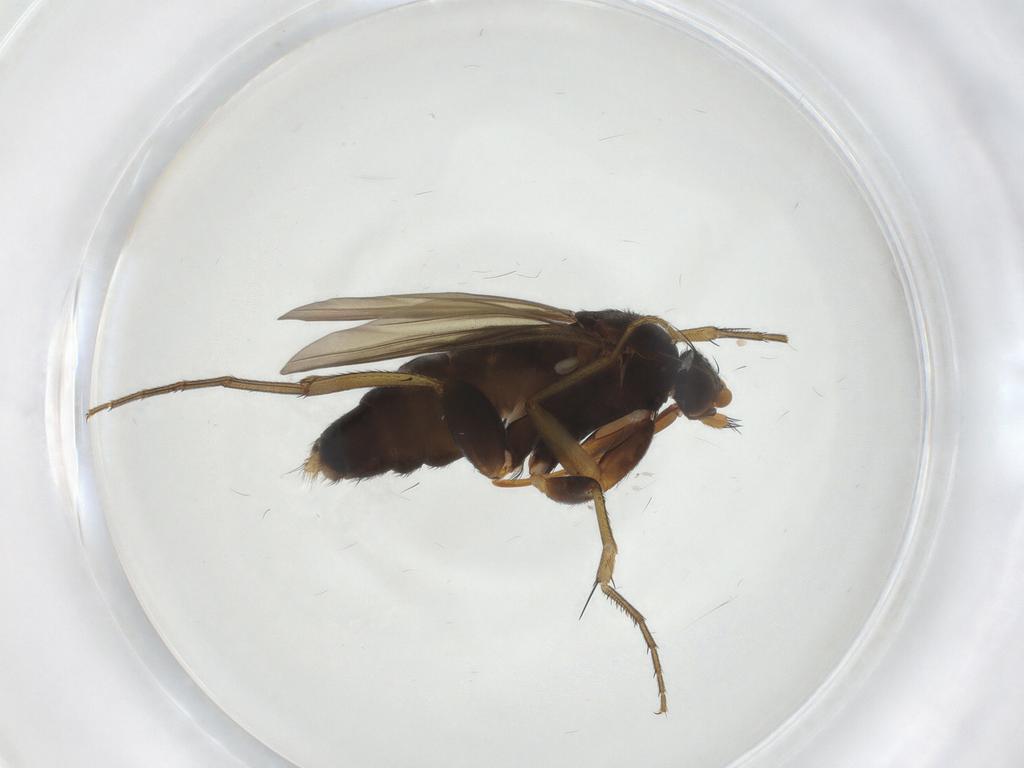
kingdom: Animalia
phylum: Arthropoda
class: Insecta
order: Diptera
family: Phoridae
